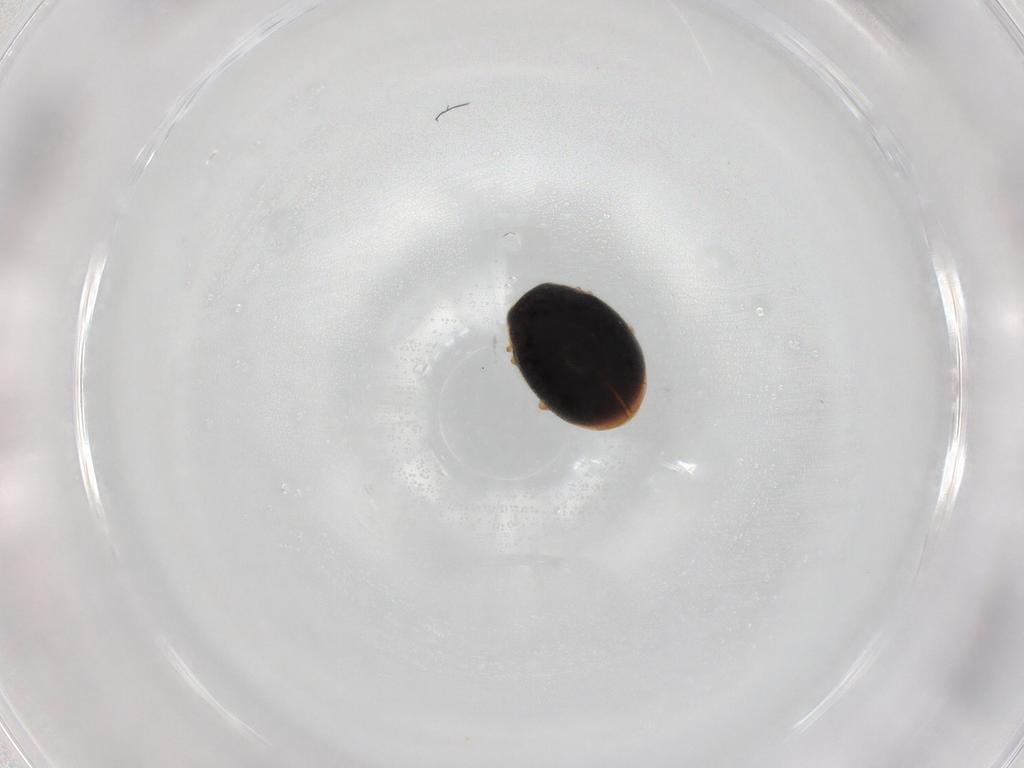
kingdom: Animalia
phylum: Arthropoda
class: Insecta
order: Coleoptera
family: Coccinellidae
